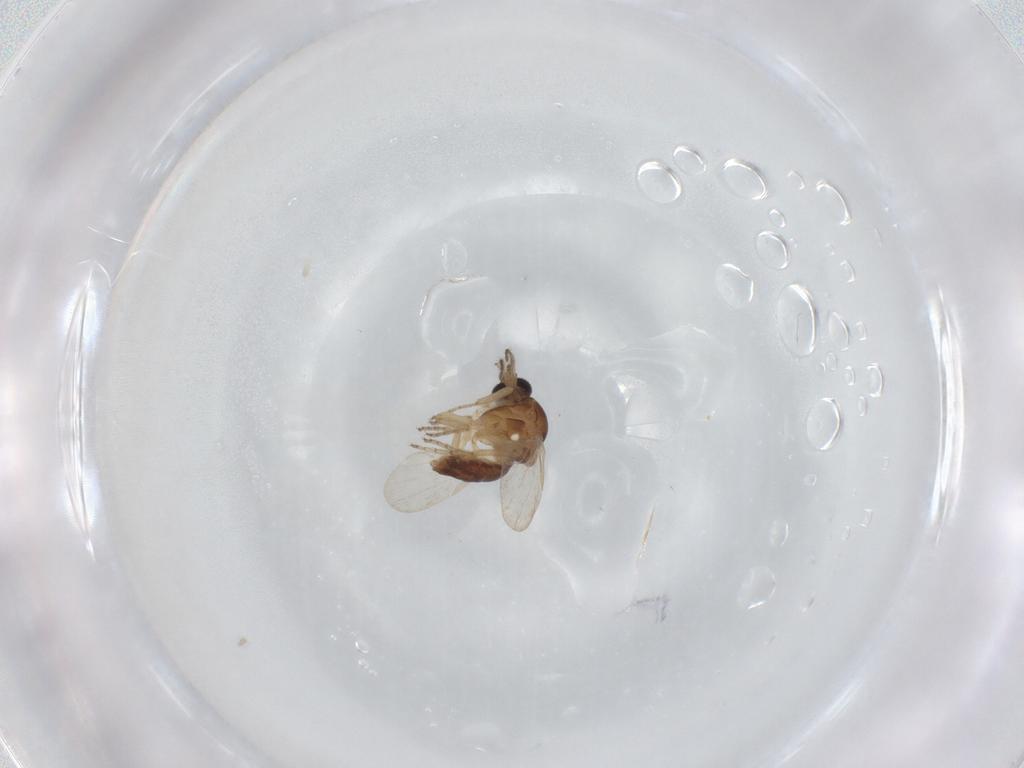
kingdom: Animalia
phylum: Arthropoda
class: Insecta
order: Diptera
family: Ceratopogonidae
